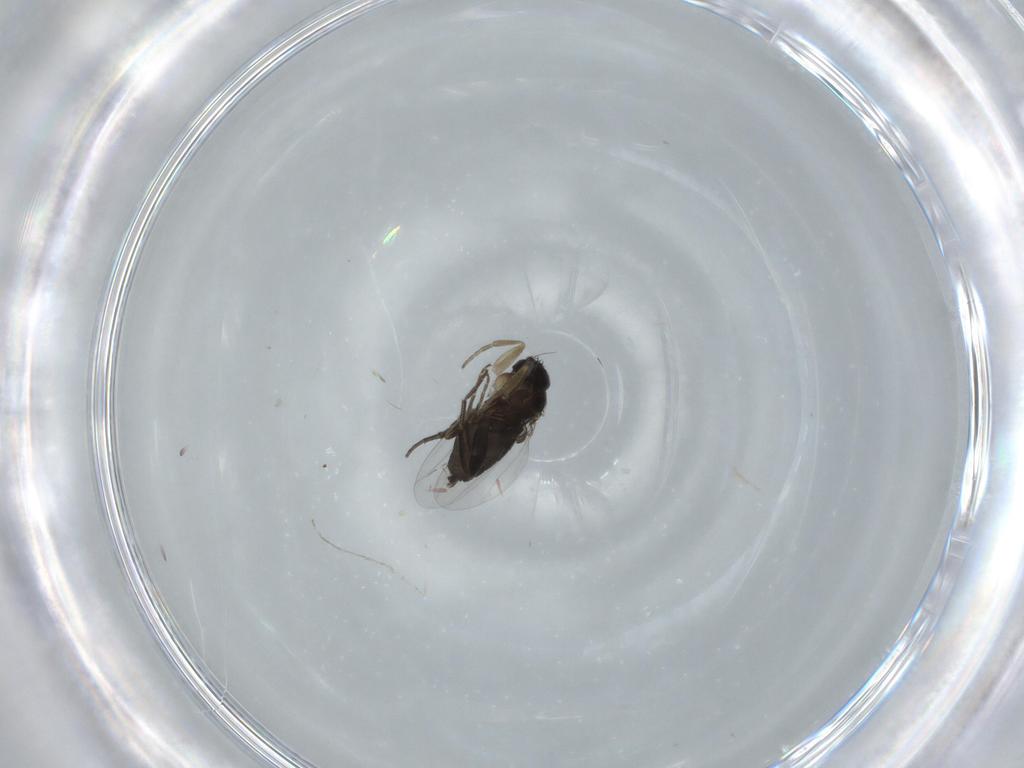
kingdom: Animalia
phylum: Arthropoda
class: Insecta
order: Diptera
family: Phoridae
